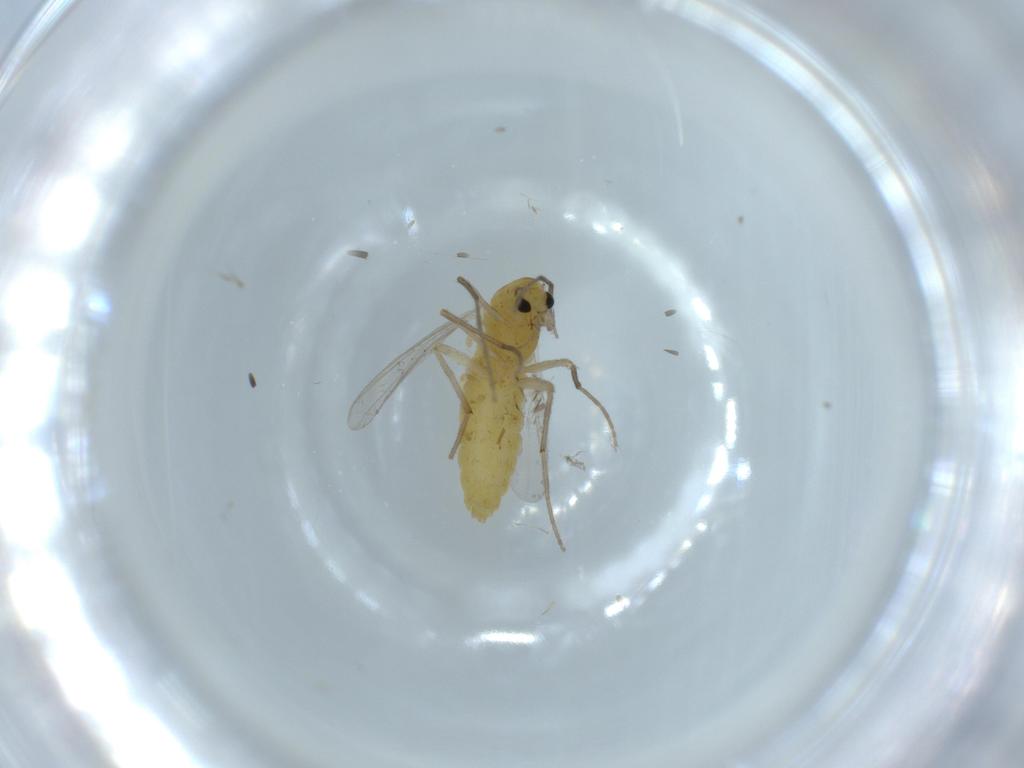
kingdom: Animalia
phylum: Arthropoda
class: Insecta
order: Diptera
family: Chironomidae
